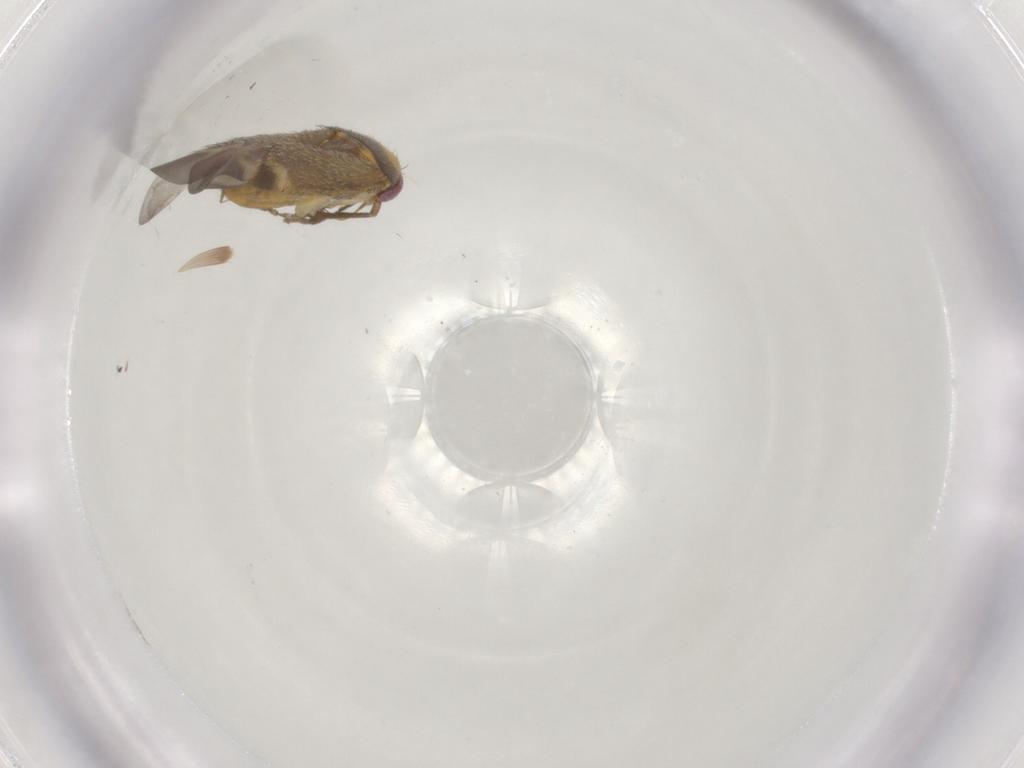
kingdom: Animalia
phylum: Arthropoda
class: Insecta
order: Hemiptera
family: Miridae
